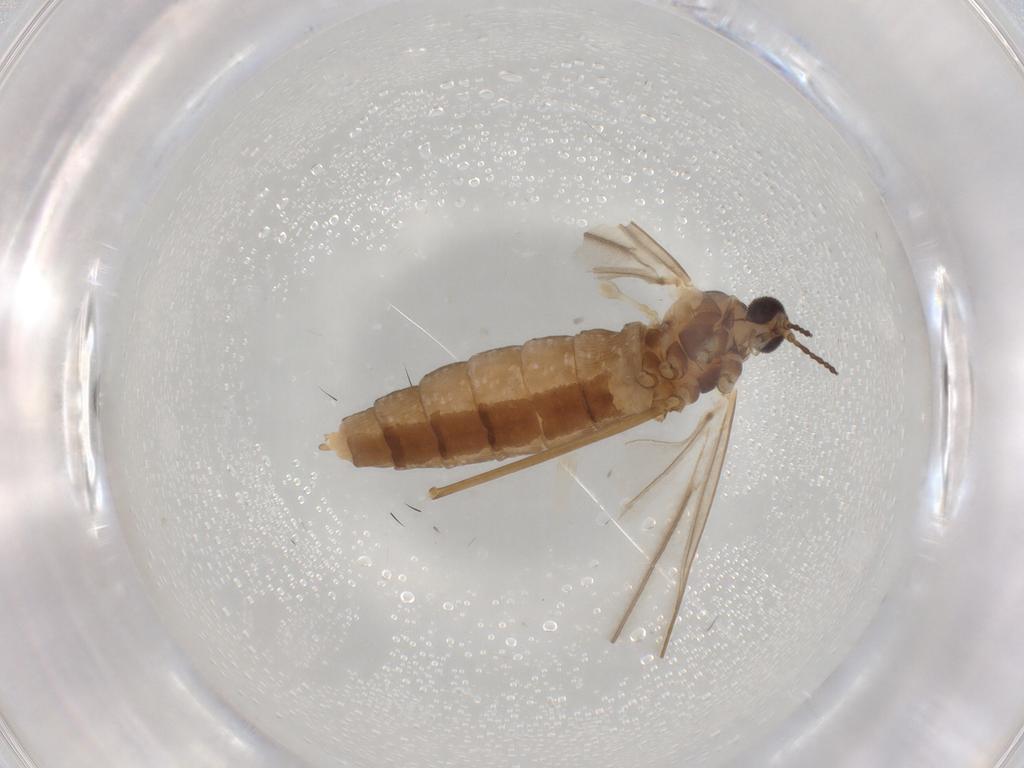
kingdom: Animalia
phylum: Arthropoda
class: Insecta
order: Diptera
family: Cecidomyiidae
